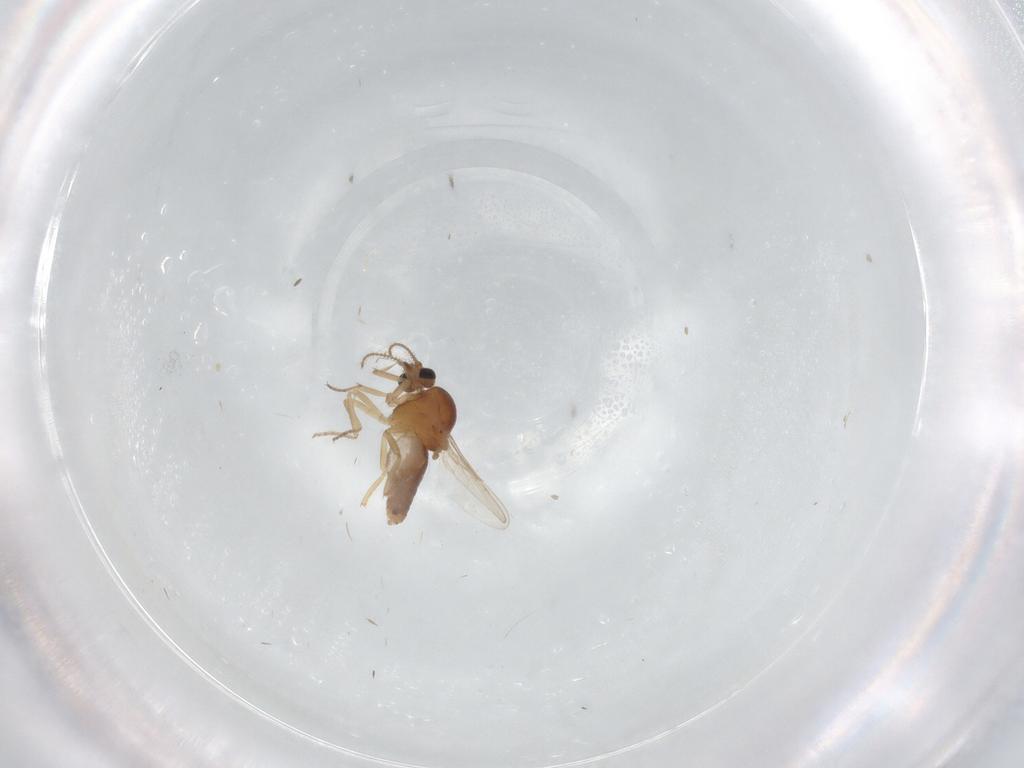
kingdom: Animalia
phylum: Arthropoda
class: Insecta
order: Diptera
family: Ceratopogonidae
